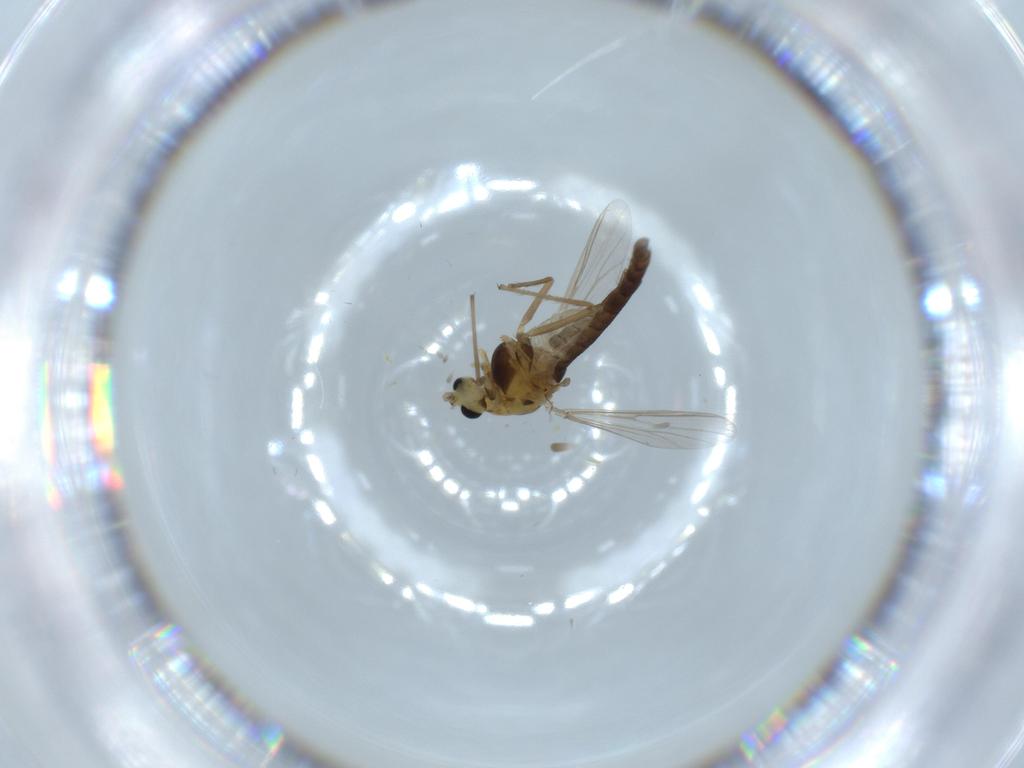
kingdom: Animalia
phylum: Arthropoda
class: Insecta
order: Diptera
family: Chironomidae
